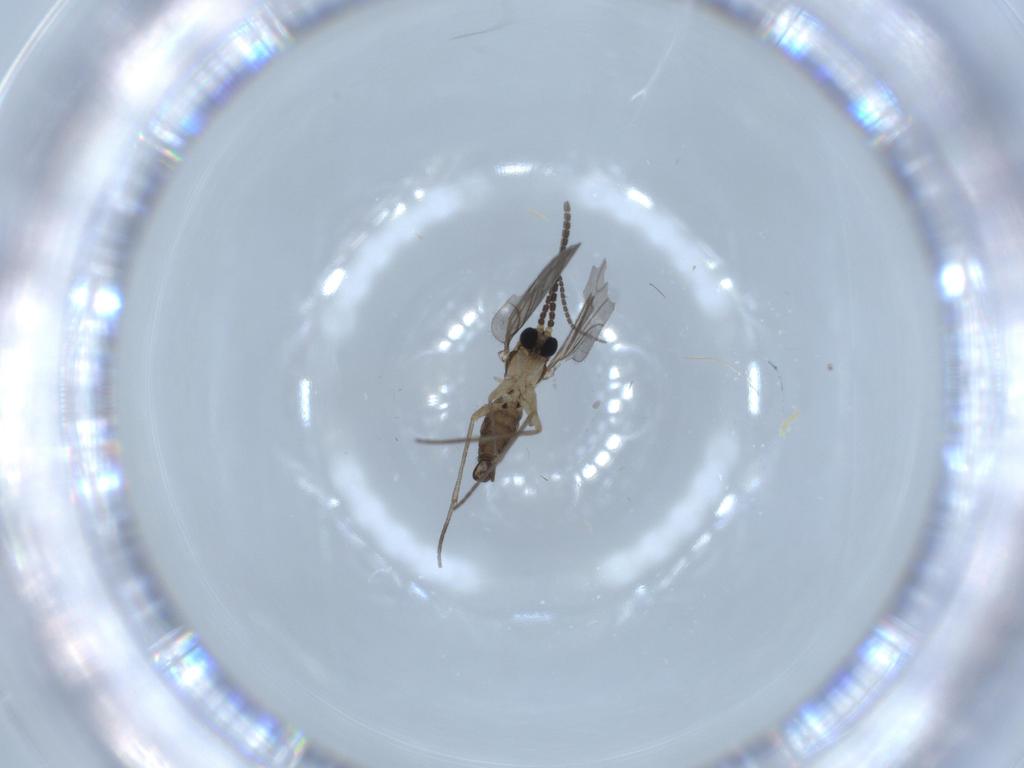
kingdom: Animalia
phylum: Arthropoda
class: Insecta
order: Diptera
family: Sciaridae
